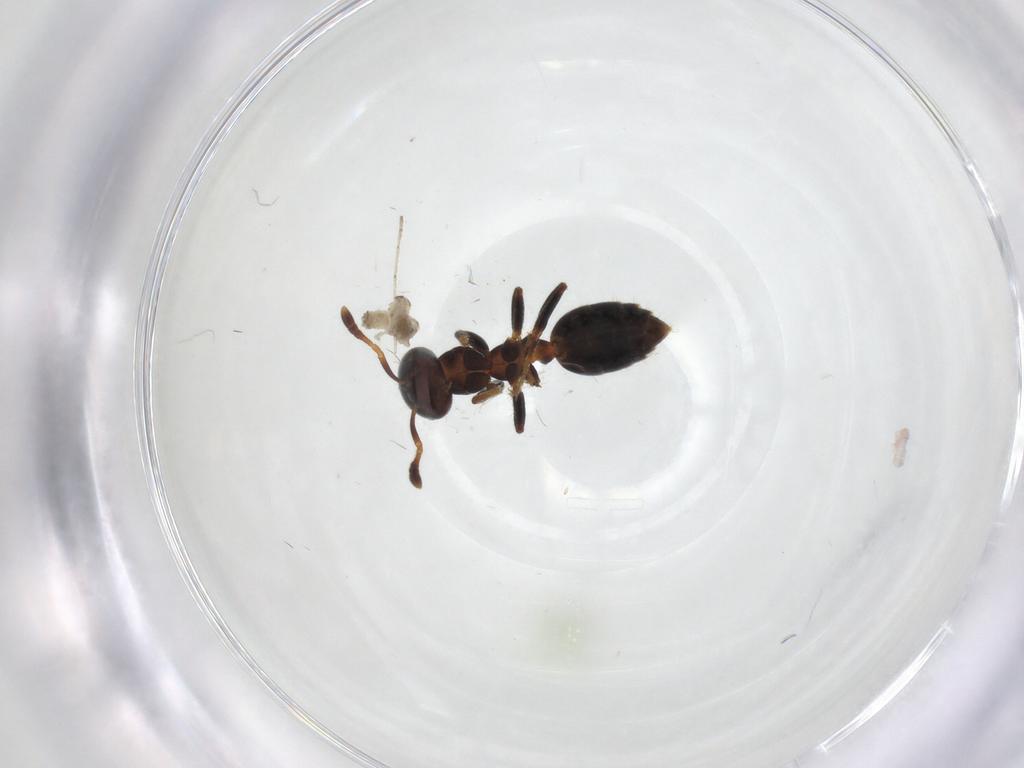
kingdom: Animalia
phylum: Arthropoda
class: Insecta
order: Hymenoptera
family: Formicidae
